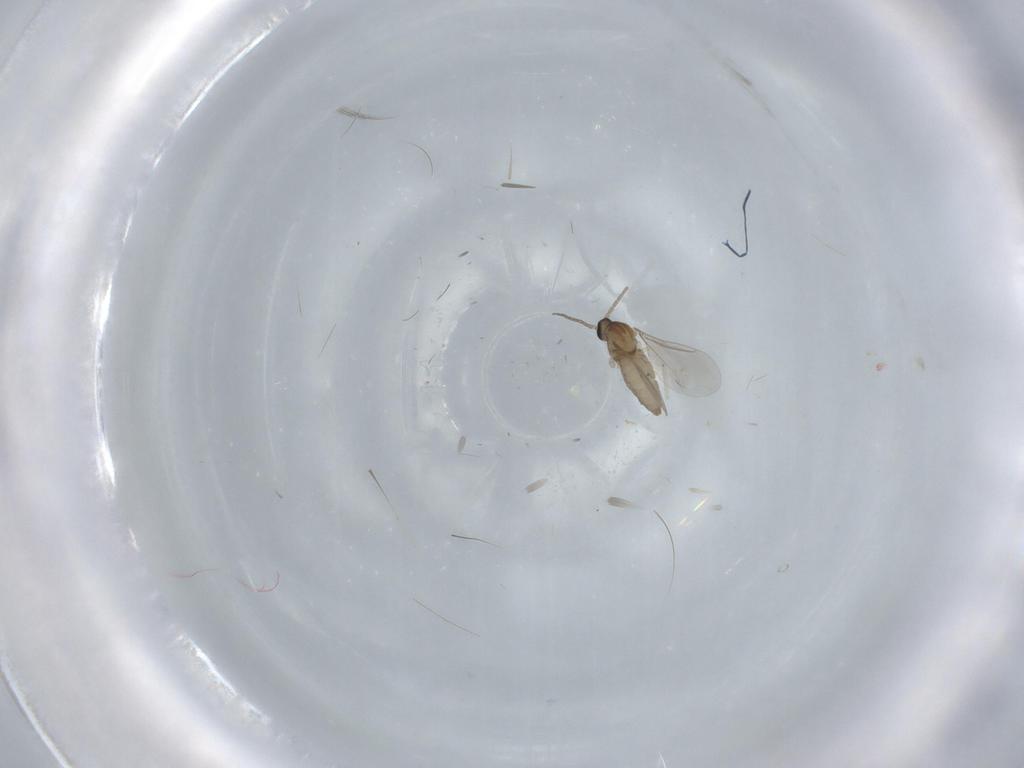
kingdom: Animalia
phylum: Arthropoda
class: Insecta
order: Diptera
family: Cecidomyiidae
